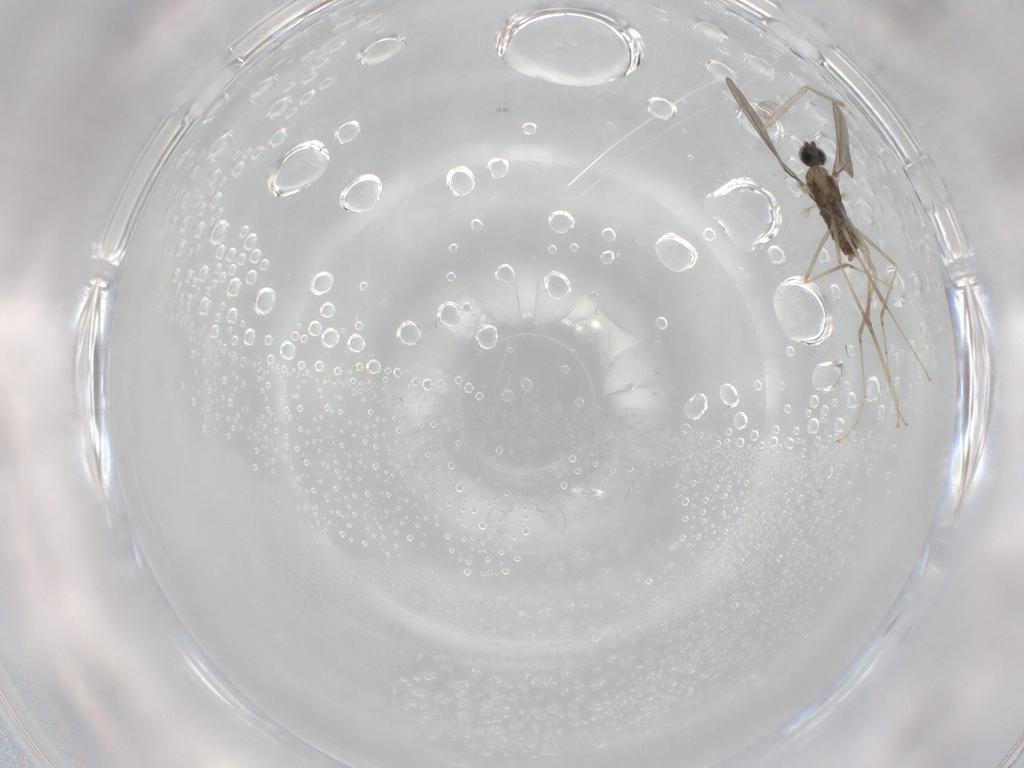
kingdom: Animalia
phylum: Arthropoda
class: Insecta
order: Diptera
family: Cecidomyiidae
